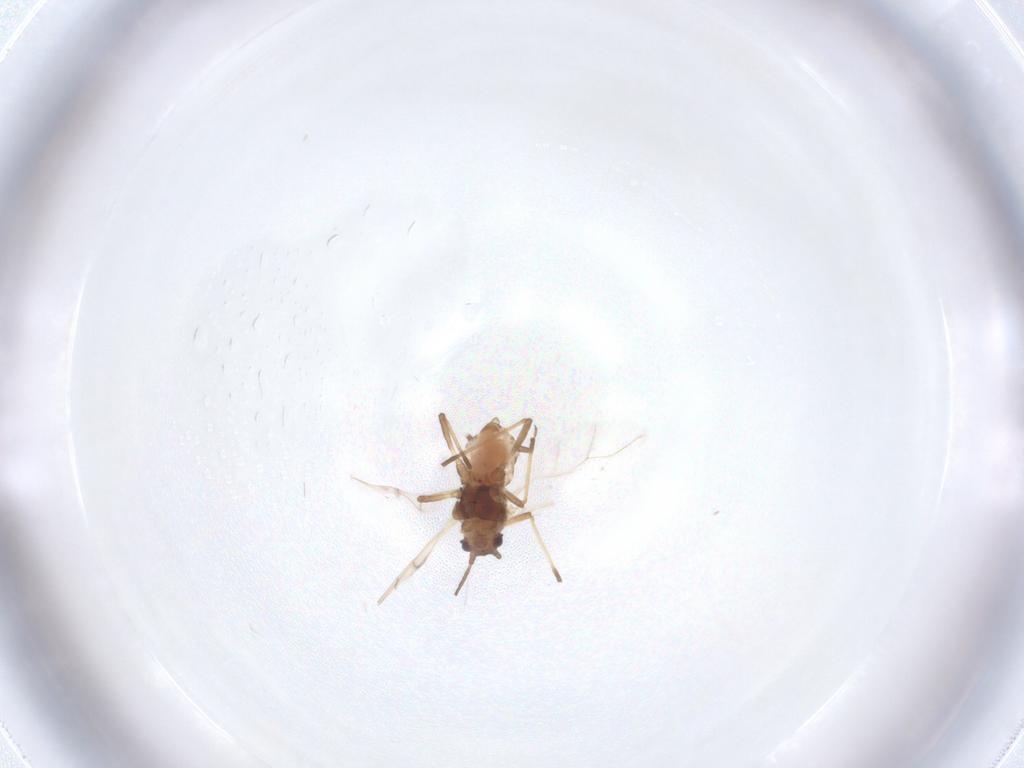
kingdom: Animalia
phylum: Arthropoda
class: Insecta
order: Hemiptera
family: Aphididae
